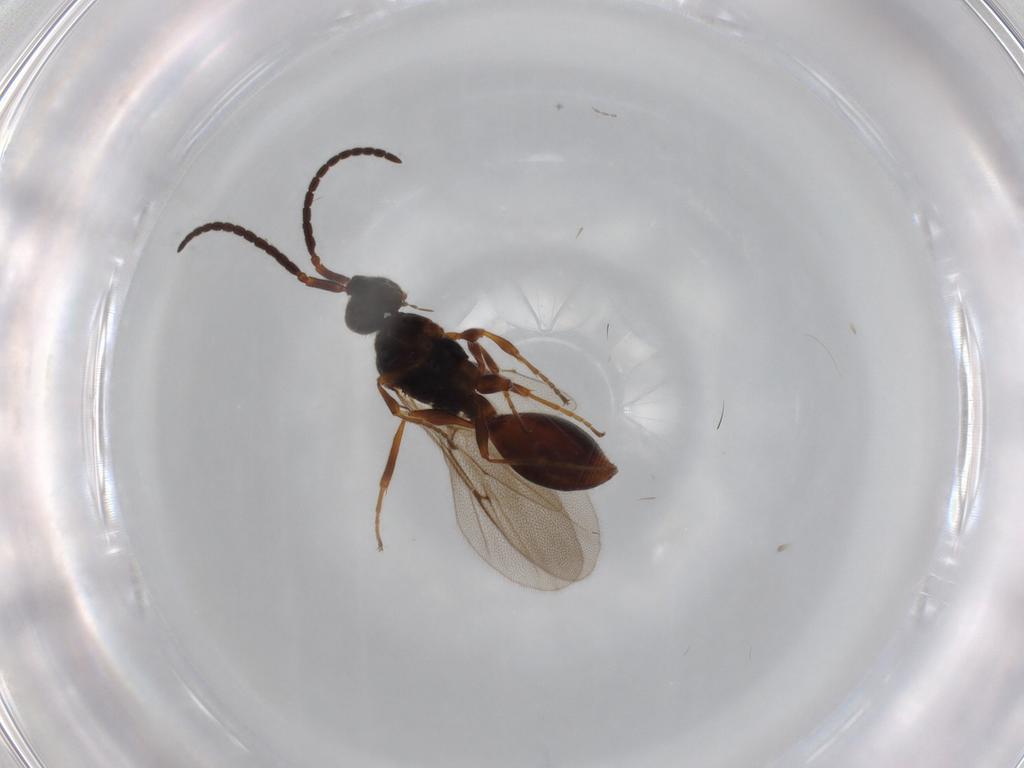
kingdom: Animalia
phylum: Arthropoda
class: Insecta
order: Hymenoptera
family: Diapriidae
